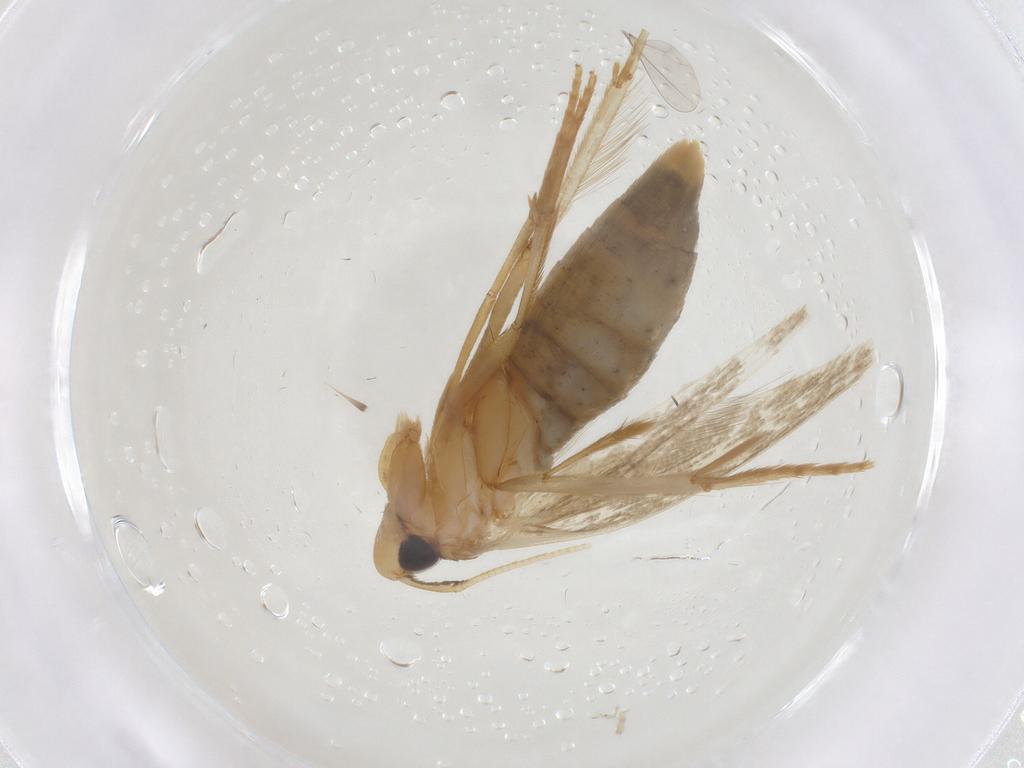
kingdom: Animalia
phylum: Arthropoda
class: Insecta
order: Lepidoptera
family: Tineidae
